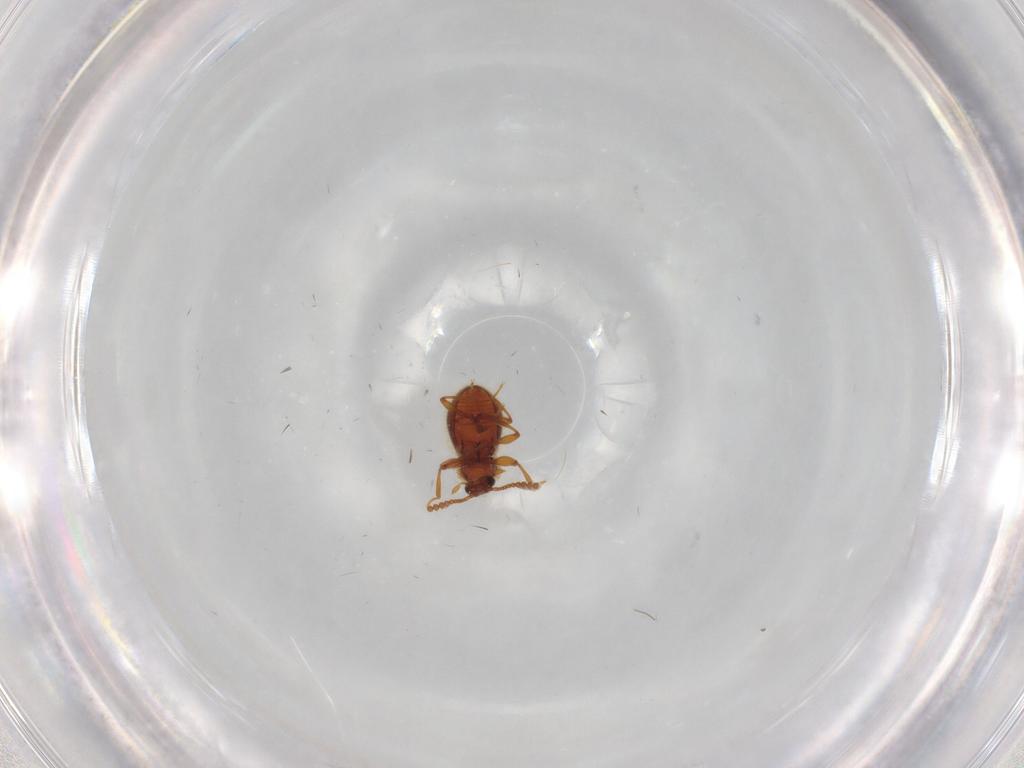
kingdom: Animalia
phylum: Arthropoda
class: Insecta
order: Coleoptera
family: Staphylinidae
